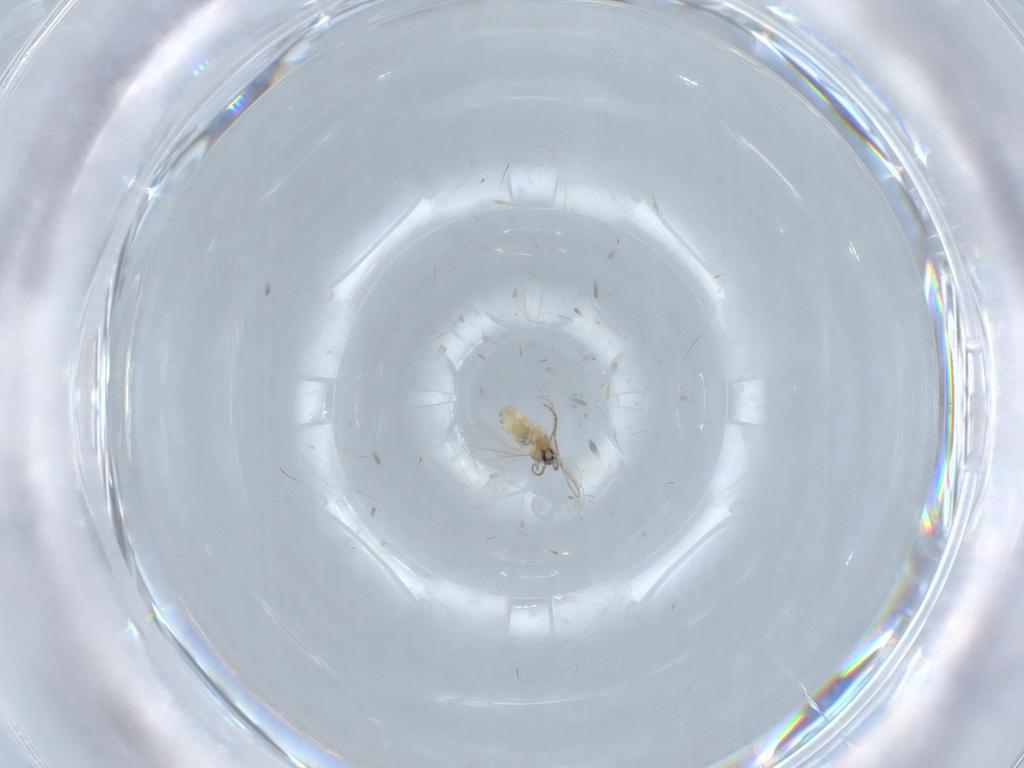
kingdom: Animalia
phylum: Arthropoda
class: Insecta
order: Diptera
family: Cecidomyiidae
